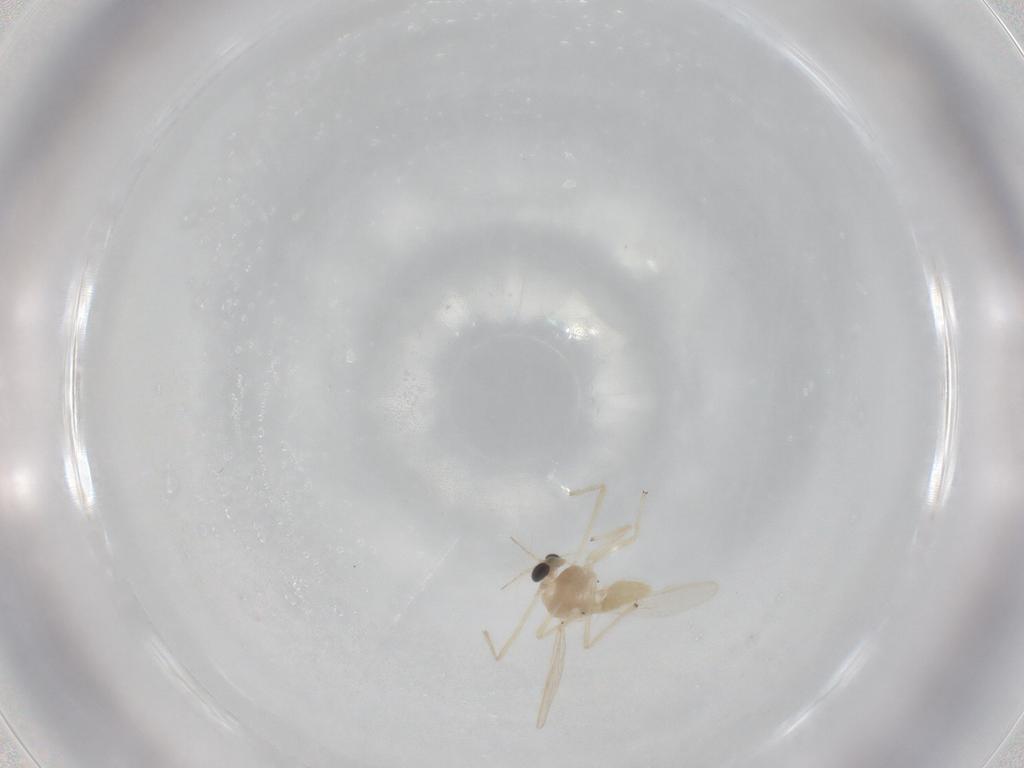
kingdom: Animalia
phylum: Arthropoda
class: Insecta
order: Diptera
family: Chironomidae
